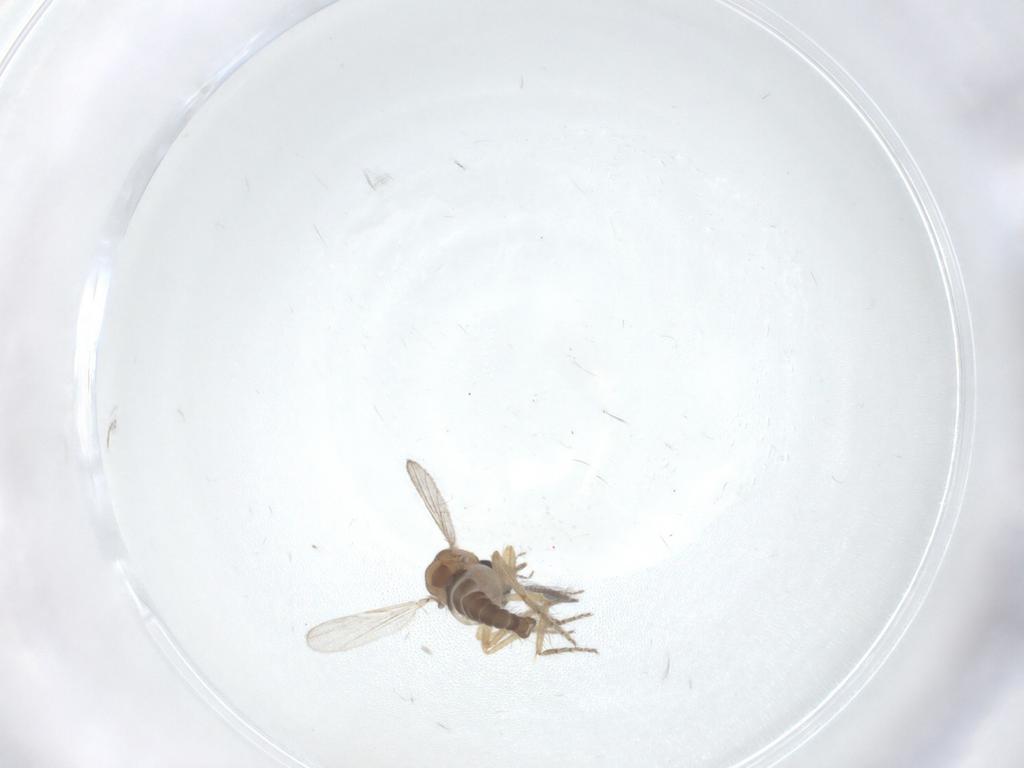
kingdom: Animalia
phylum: Arthropoda
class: Insecta
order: Diptera
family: Ceratopogonidae
